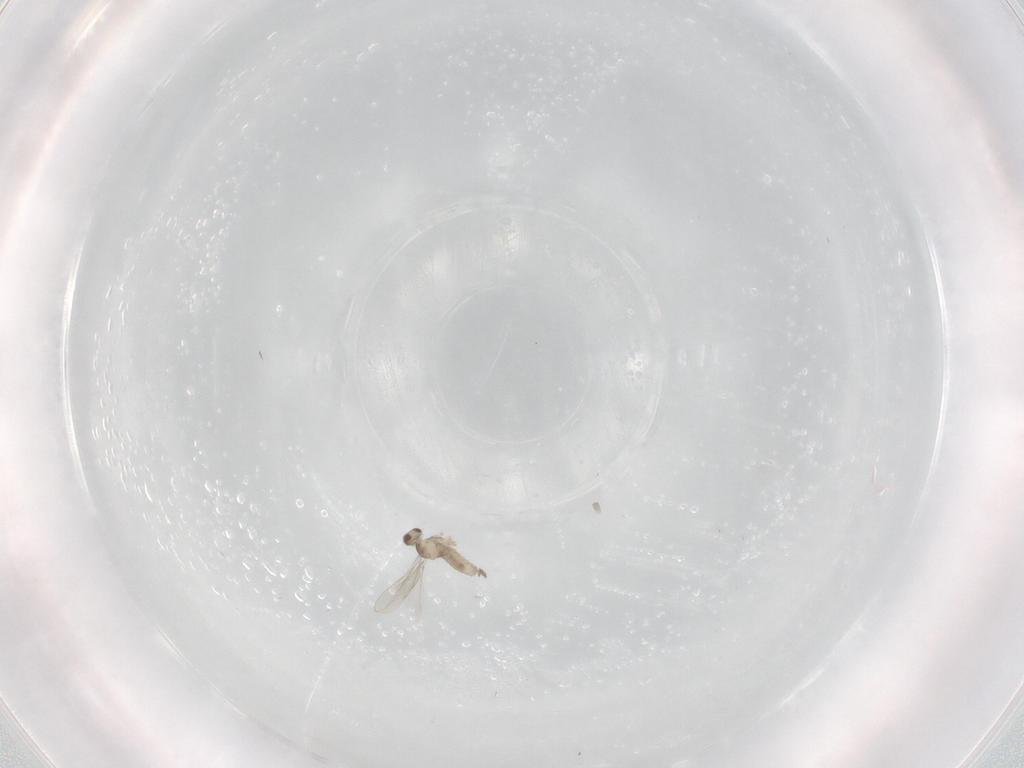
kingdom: Animalia
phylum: Arthropoda
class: Insecta
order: Diptera
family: Cecidomyiidae
